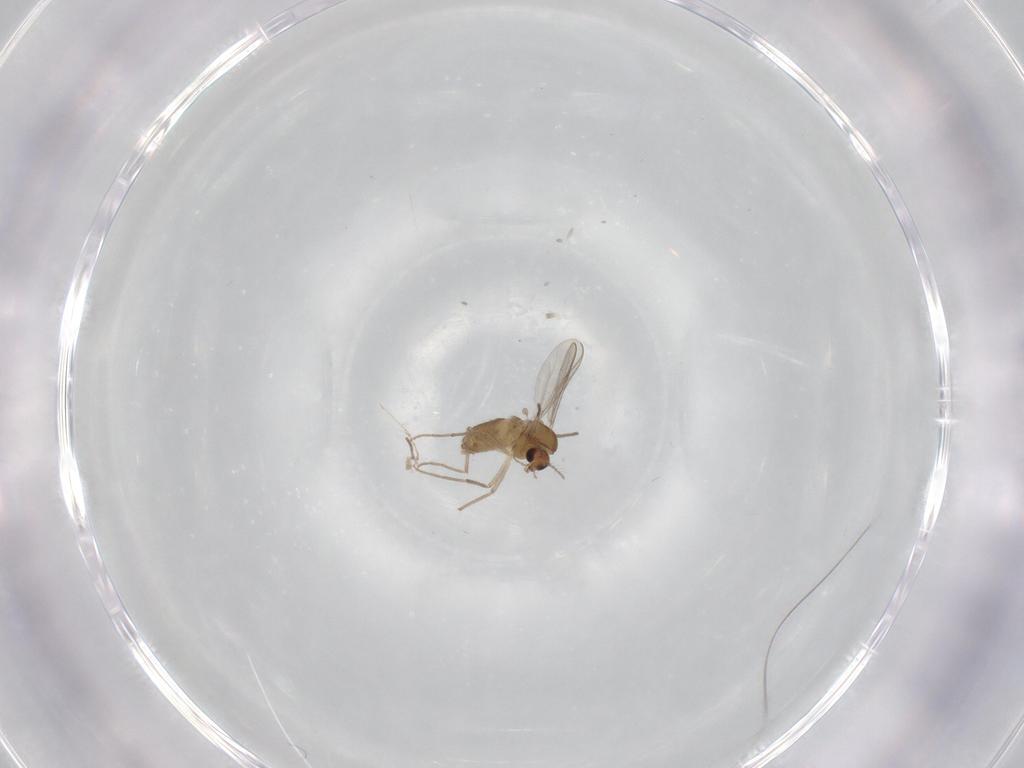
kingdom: Animalia
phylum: Arthropoda
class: Insecta
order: Diptera
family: Chironomidae
